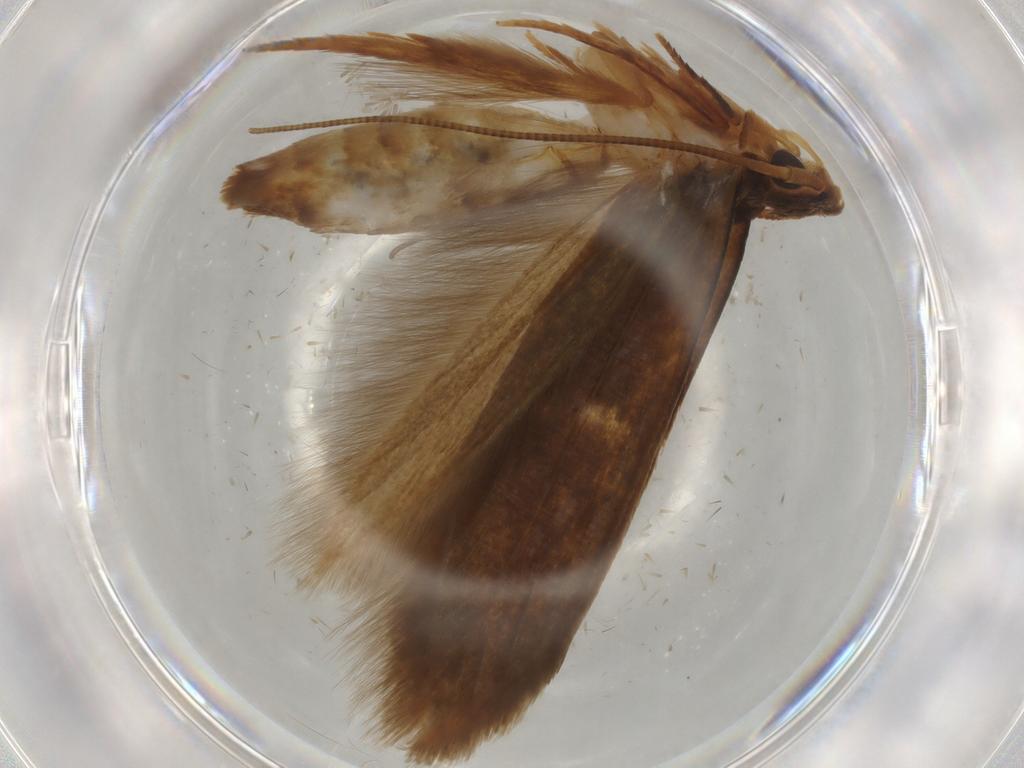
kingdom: Animalia
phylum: Arthropoda
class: Insecta
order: Lepidoptera
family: Tineidae
